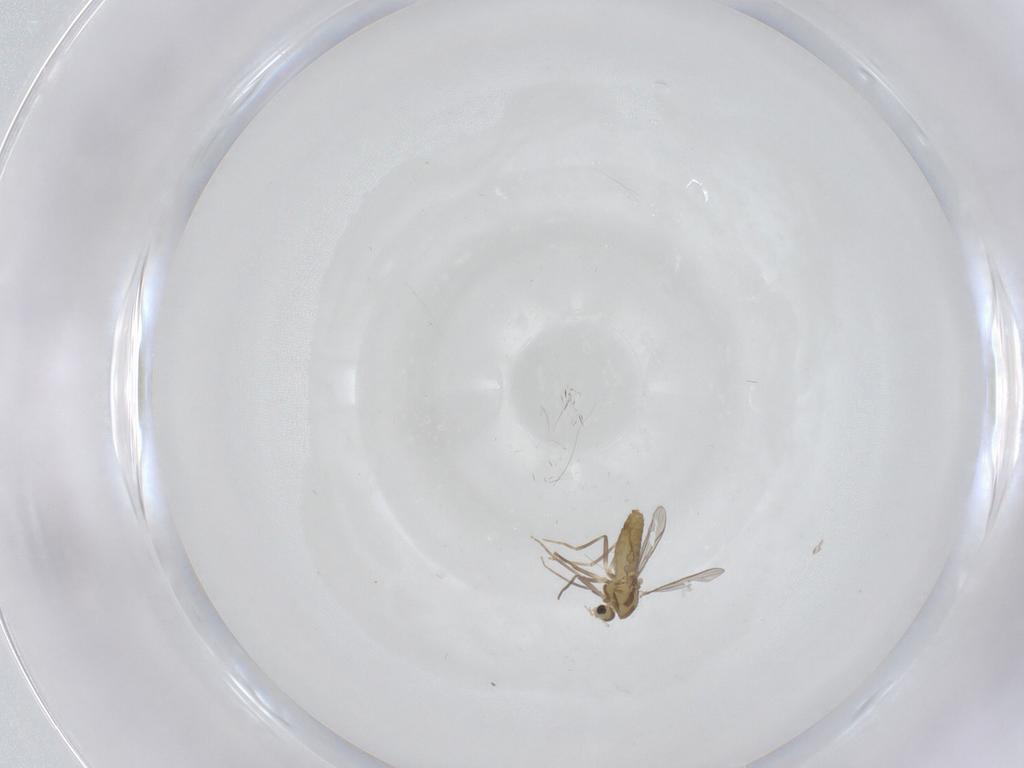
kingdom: Animalia
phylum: Arthropoda
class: Insecta
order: Diptera
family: Chironomidae
